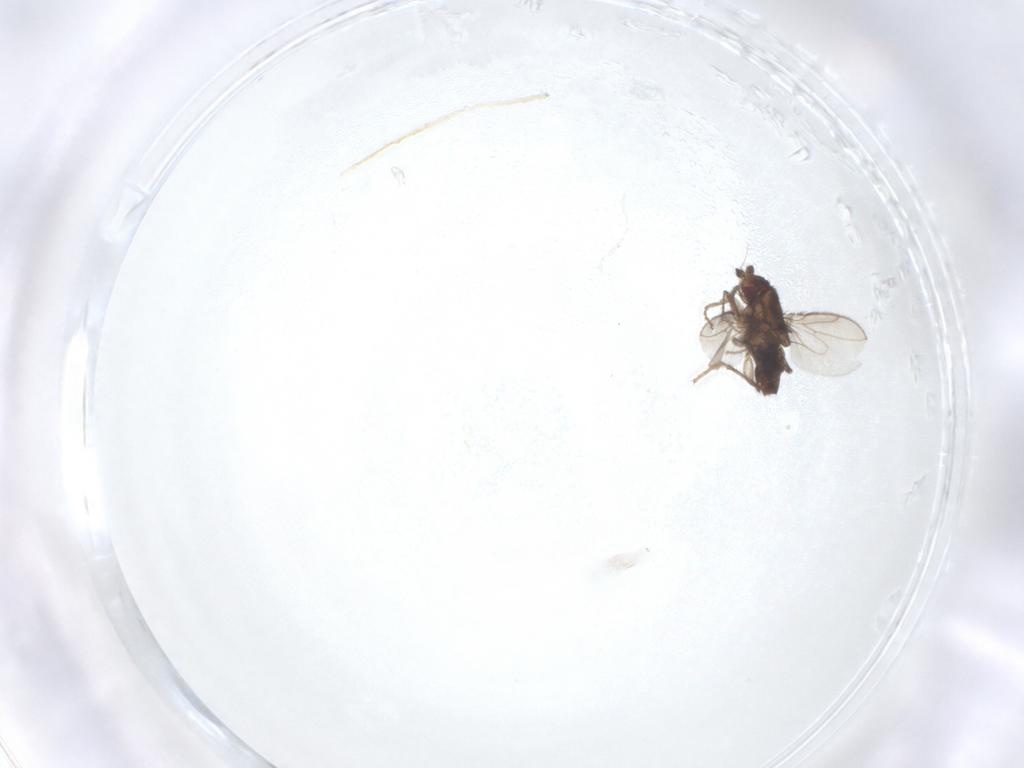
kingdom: Animalia
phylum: Arthropoda
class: Insecta
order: Diptera
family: Sphaeroceridae
